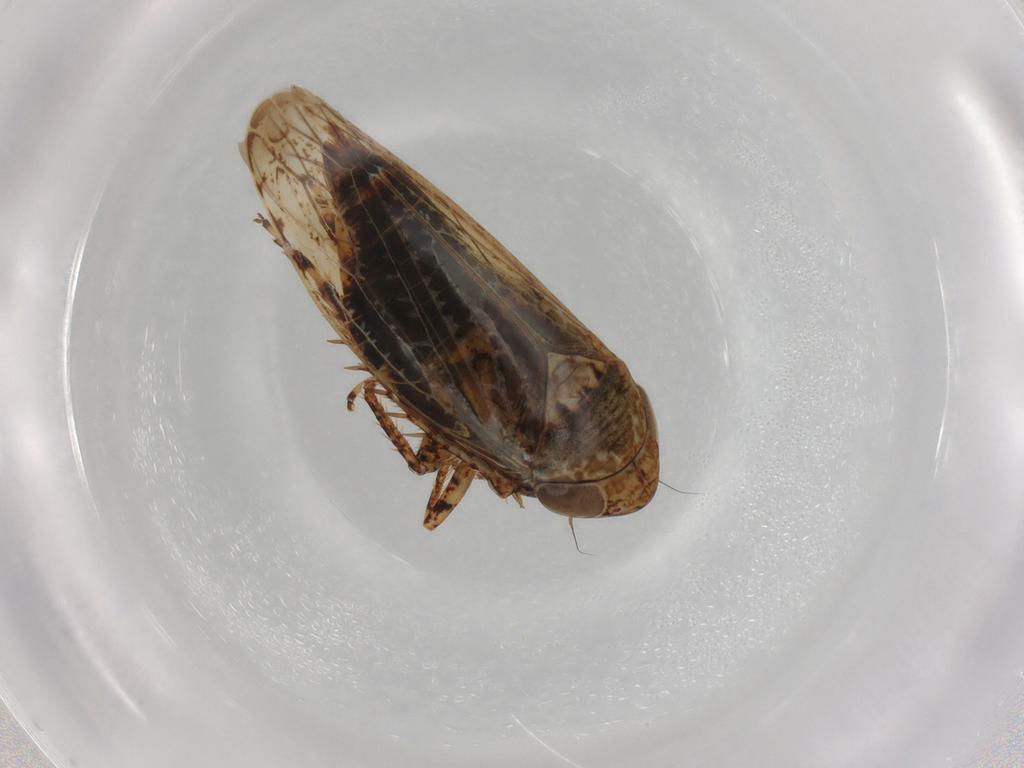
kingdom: Animalia
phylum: Arthropoda
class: Insecta
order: Hemiptera
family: Cicadellidae
